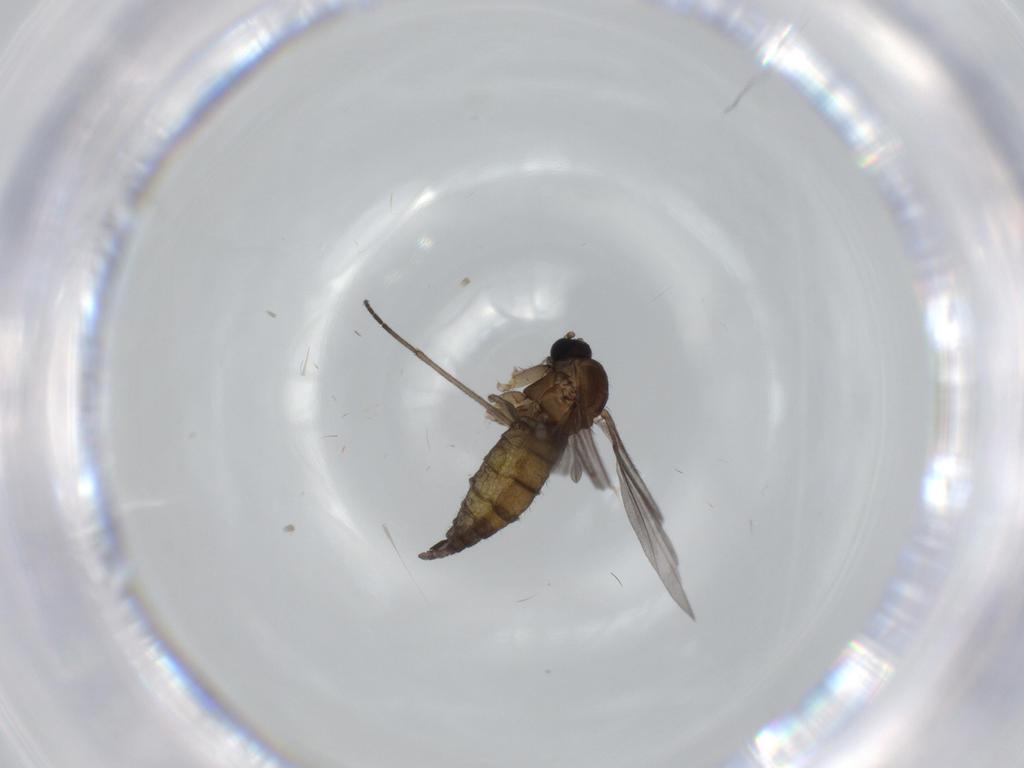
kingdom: Animalia
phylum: Arthropoda
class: Insecta
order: Diptera
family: Sciaridae
